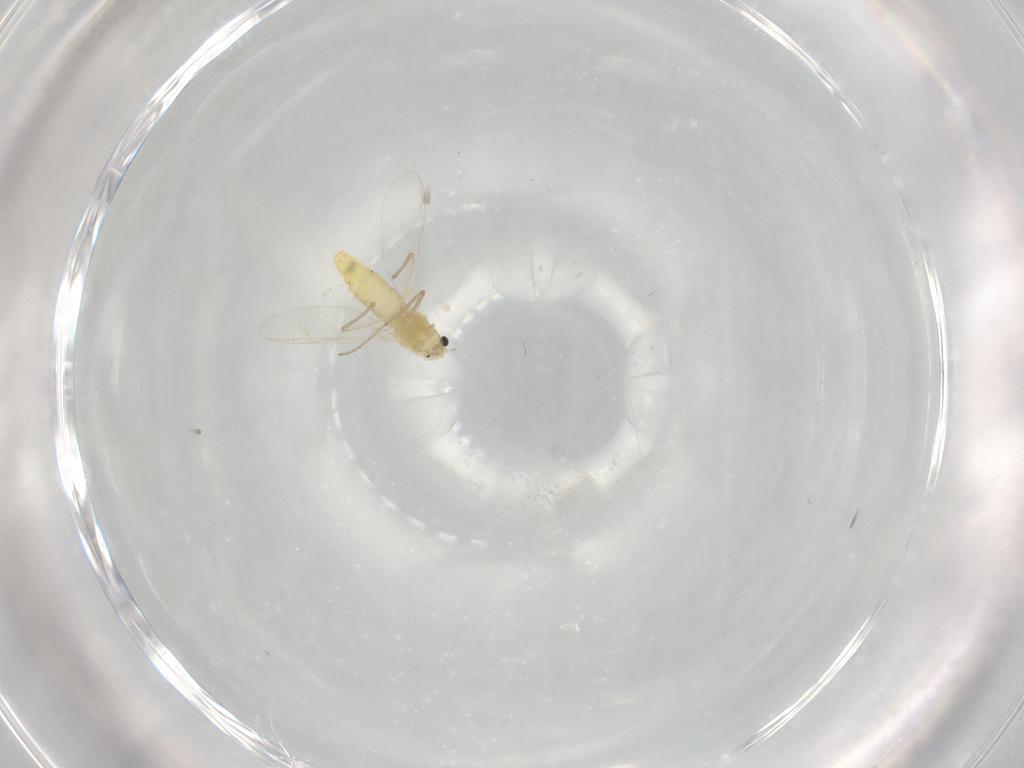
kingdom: Animalia
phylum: Arthropoda
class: Insecta
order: Diptera
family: Chironomidae
